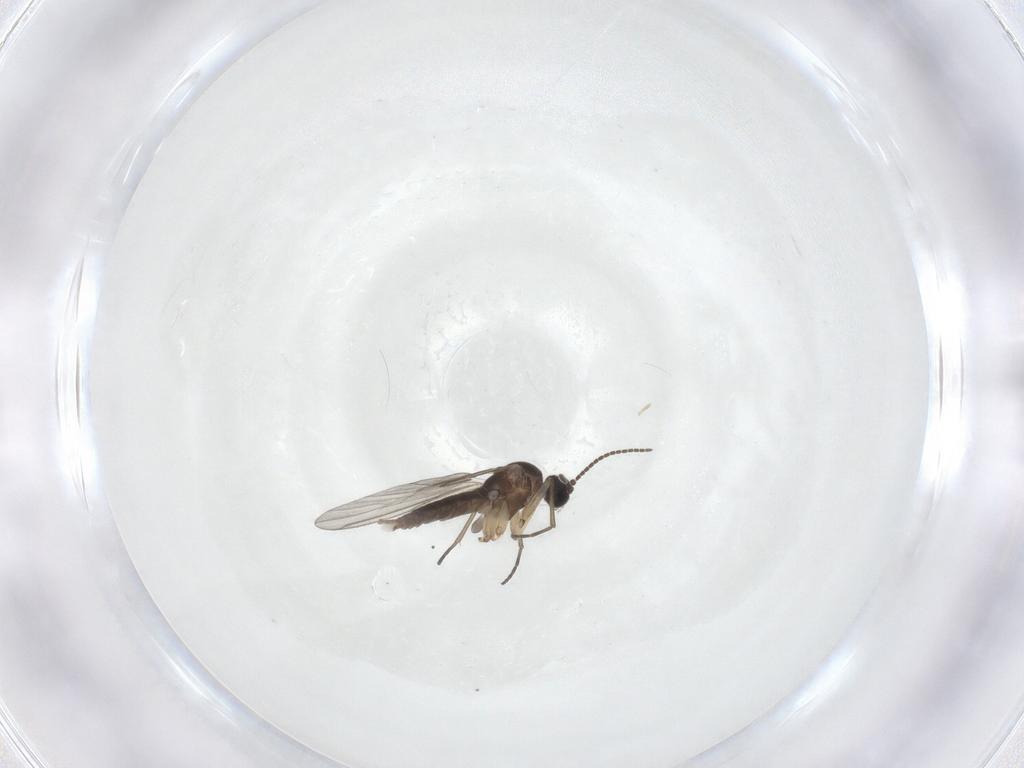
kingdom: Animalia
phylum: Arthropoda
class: Insecta
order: Diptera
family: Sciaridae
